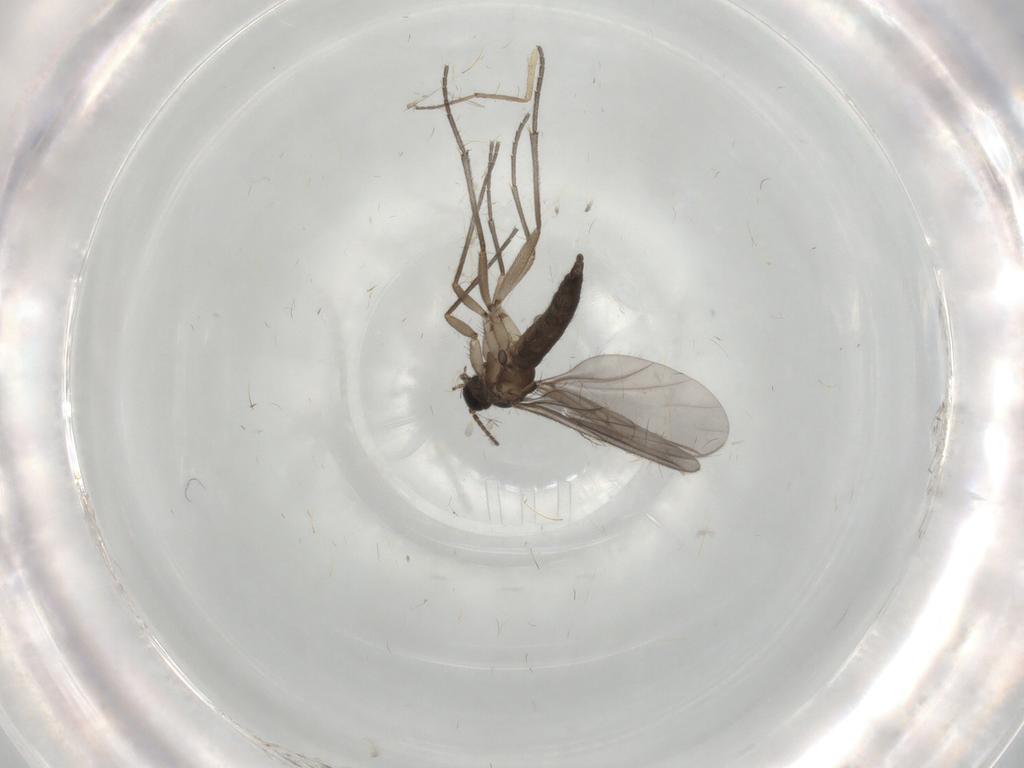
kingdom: Animalia
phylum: Arthropoda
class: Insecta
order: Diptera
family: Sciaridae
